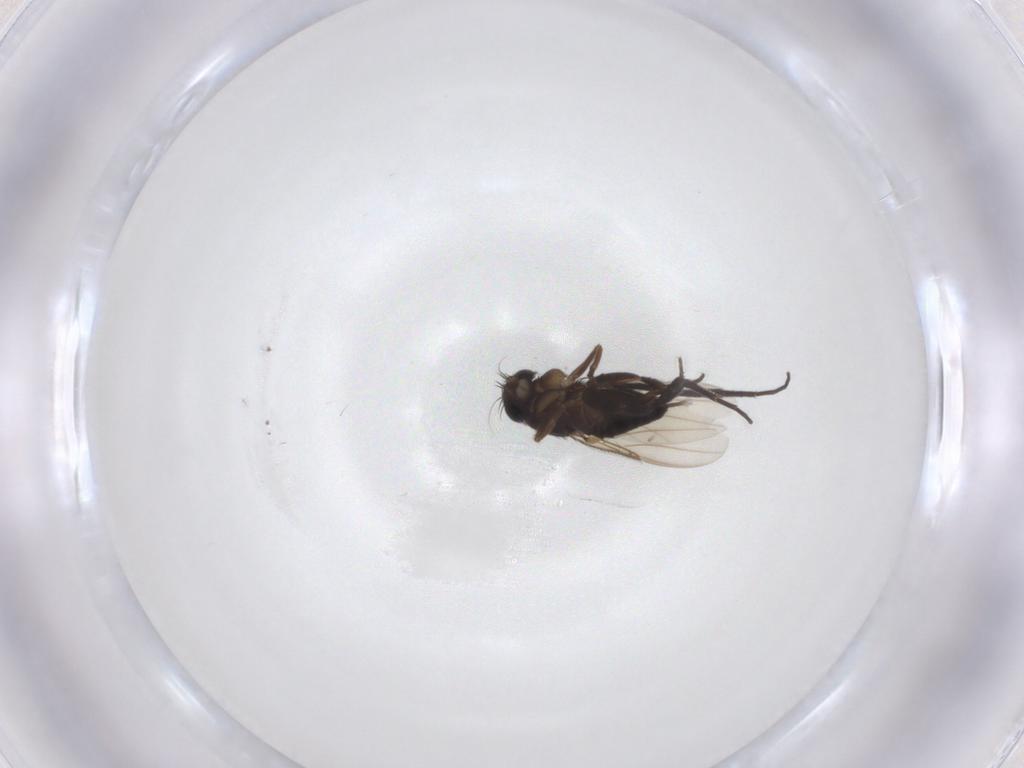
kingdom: Animalia
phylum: Arthropoda
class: Insecta
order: Diptera
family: Phoridae
